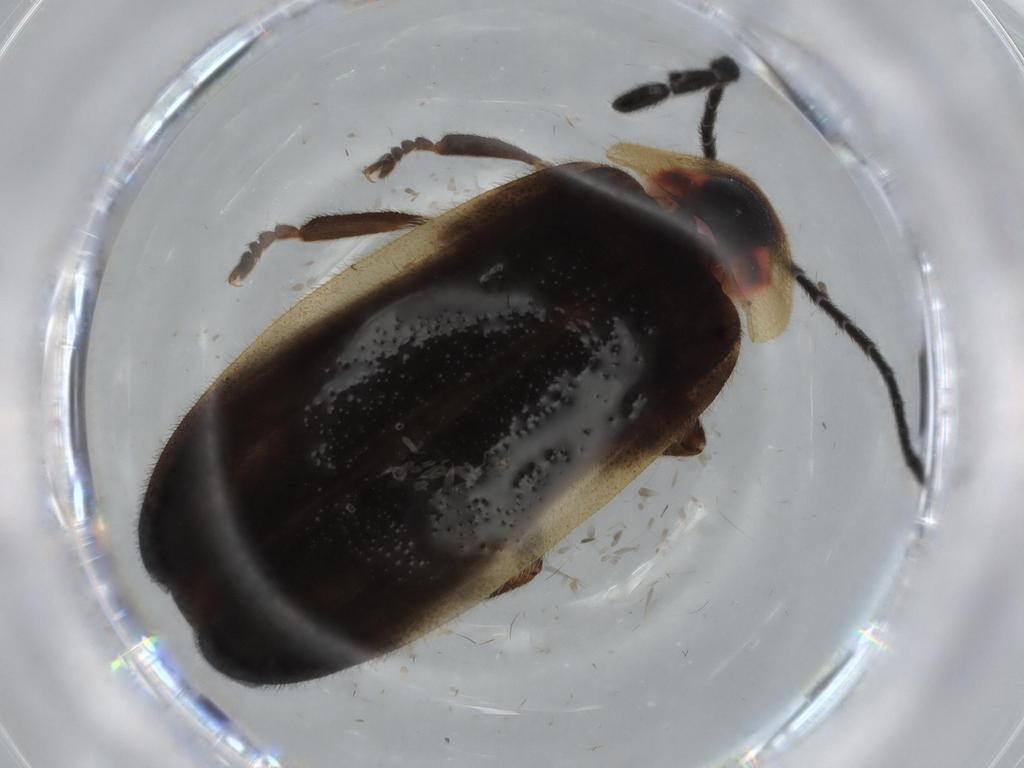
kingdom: Animalia
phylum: Arthropoda
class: Insecta
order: Coleoptera
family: Lampyridae
